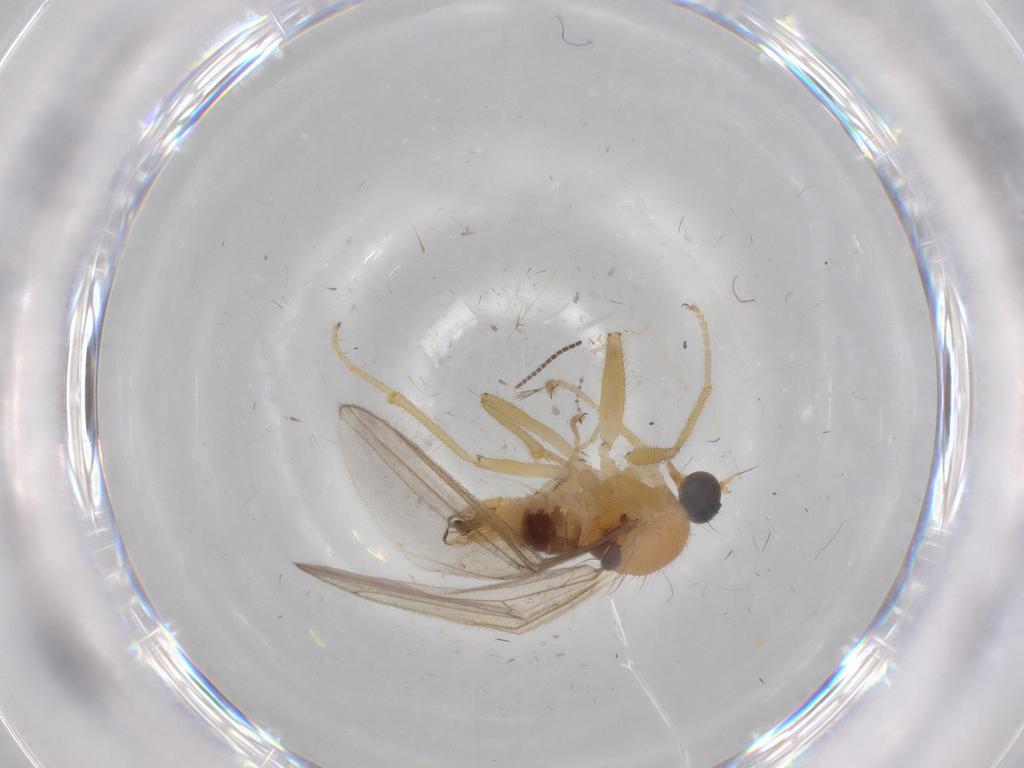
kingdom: Animalia
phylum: Arthropoda
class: Insecta
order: Diptera
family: Hybotidae
